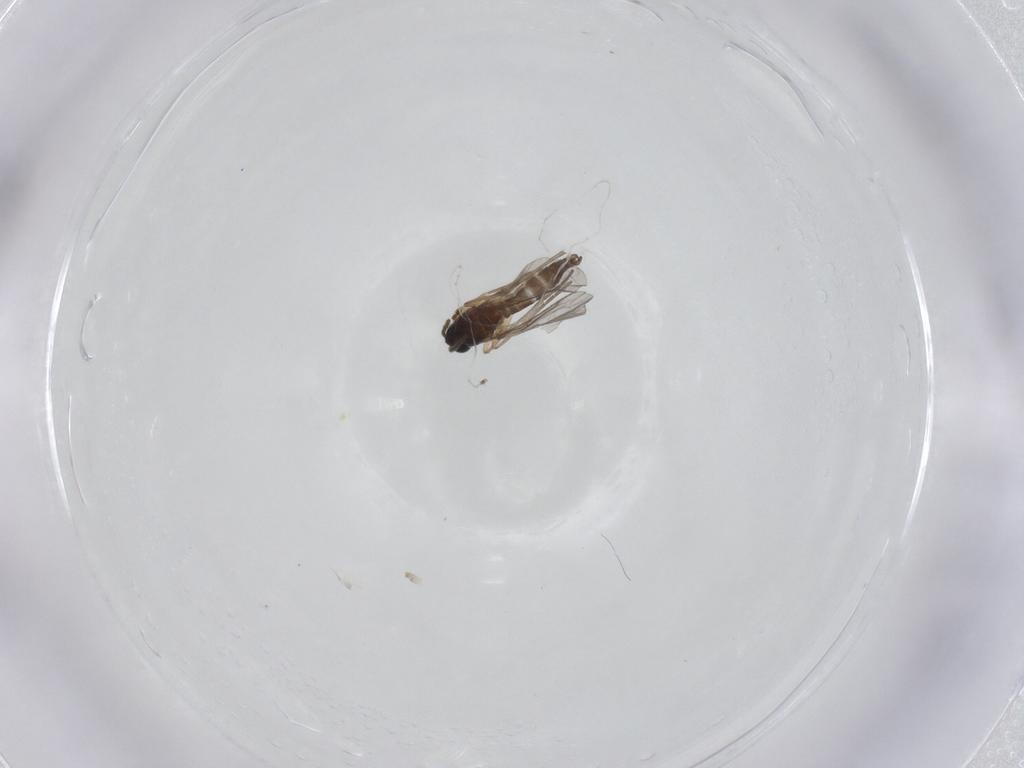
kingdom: Animalia
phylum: Arthropoda
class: Insecta
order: Diptera
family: Sciaridae
